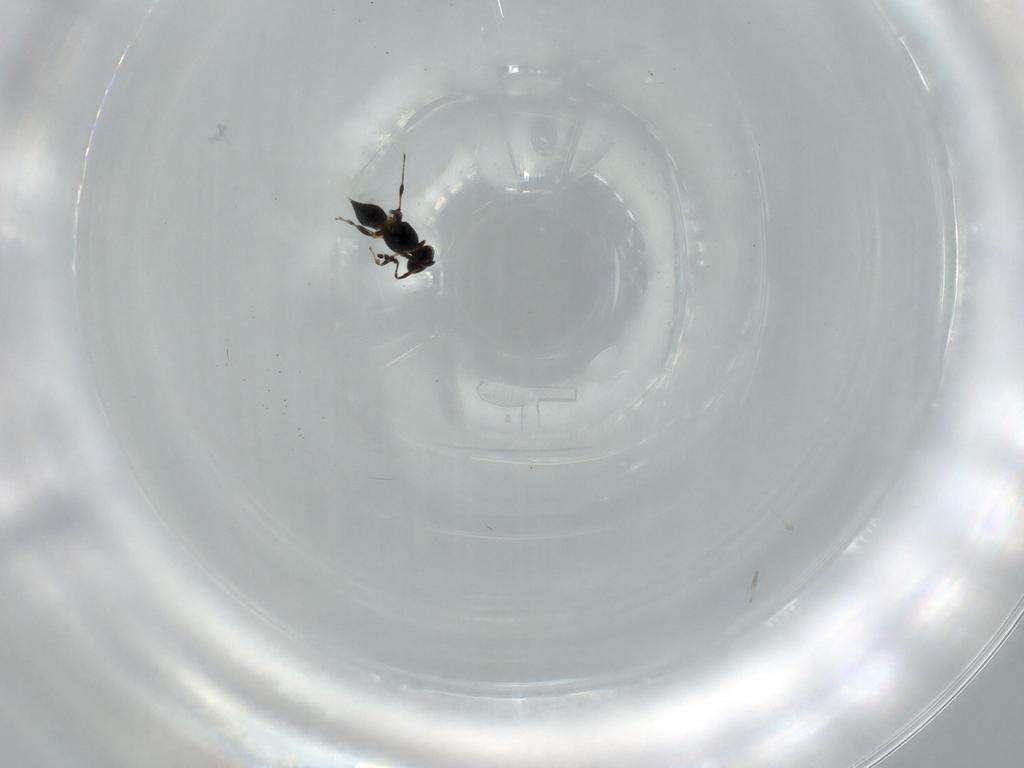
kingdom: Animalia
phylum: Arthropoda
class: Insecta
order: Hymenoptera
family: Platygastridae
